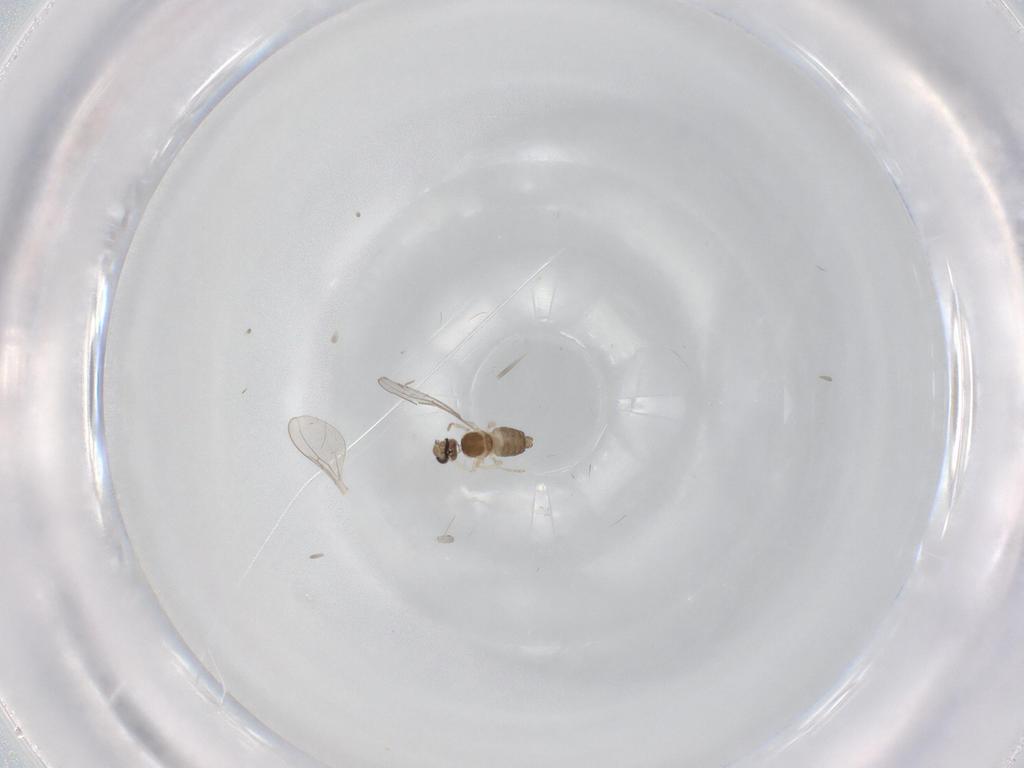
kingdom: Animalia
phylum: Arthropoda
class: Insecta
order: Diptera
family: Cecidomyiidae
